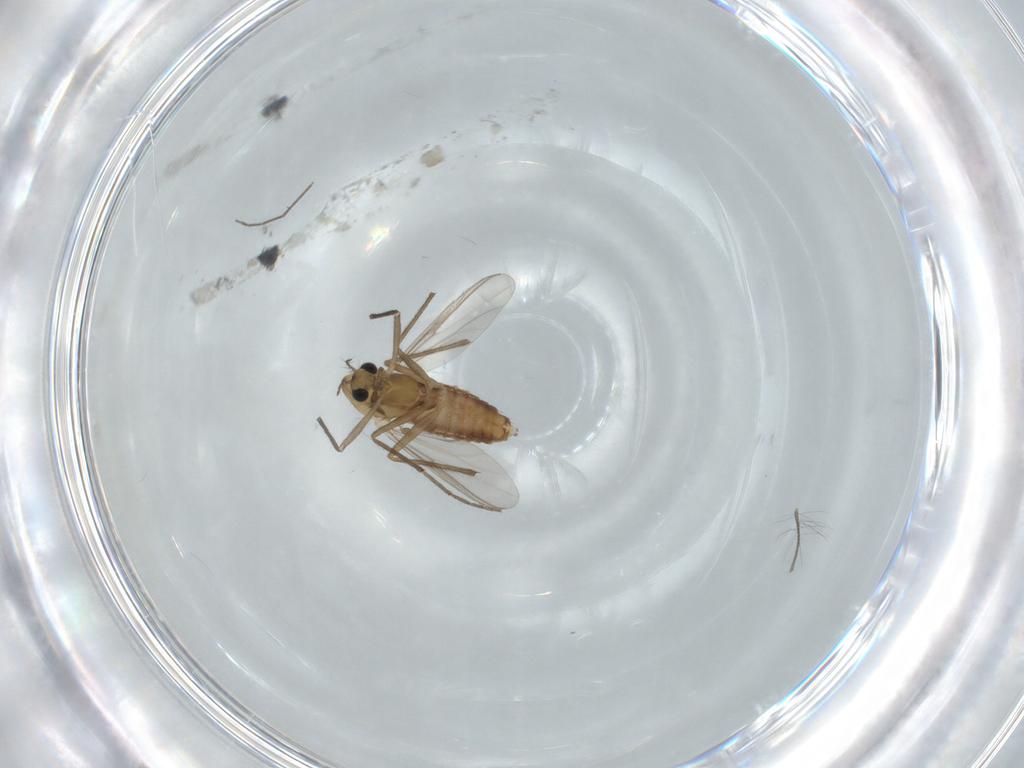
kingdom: Animalia
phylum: Arthropoda
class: Insecta
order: Diptera
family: Chironomidae
